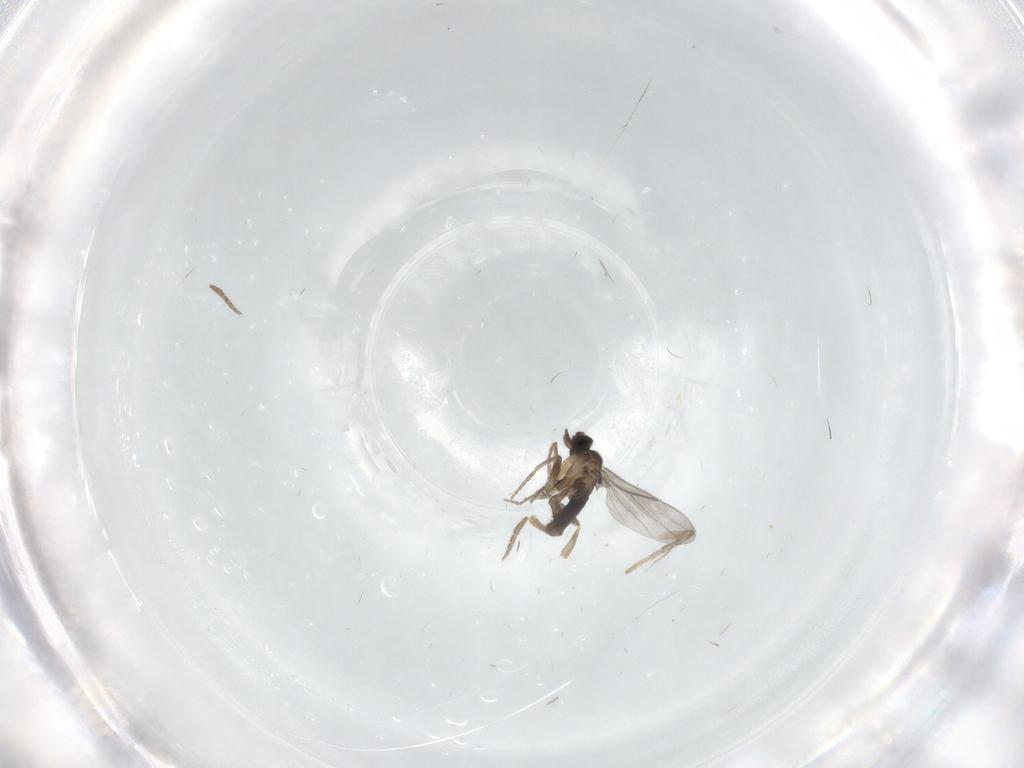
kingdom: Animalia
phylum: Arthropoda
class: Insecta
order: Diptera
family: Psychodidae
